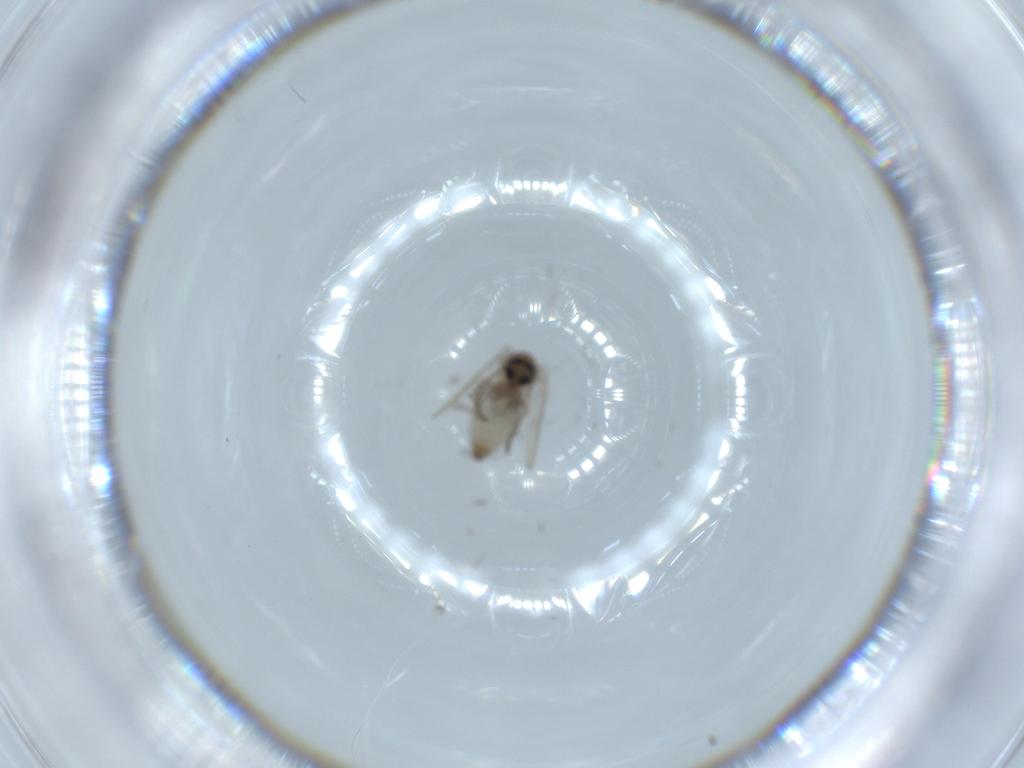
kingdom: Animalia
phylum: Arthropoda
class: Insecta
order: Diptera
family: Psychodidae
